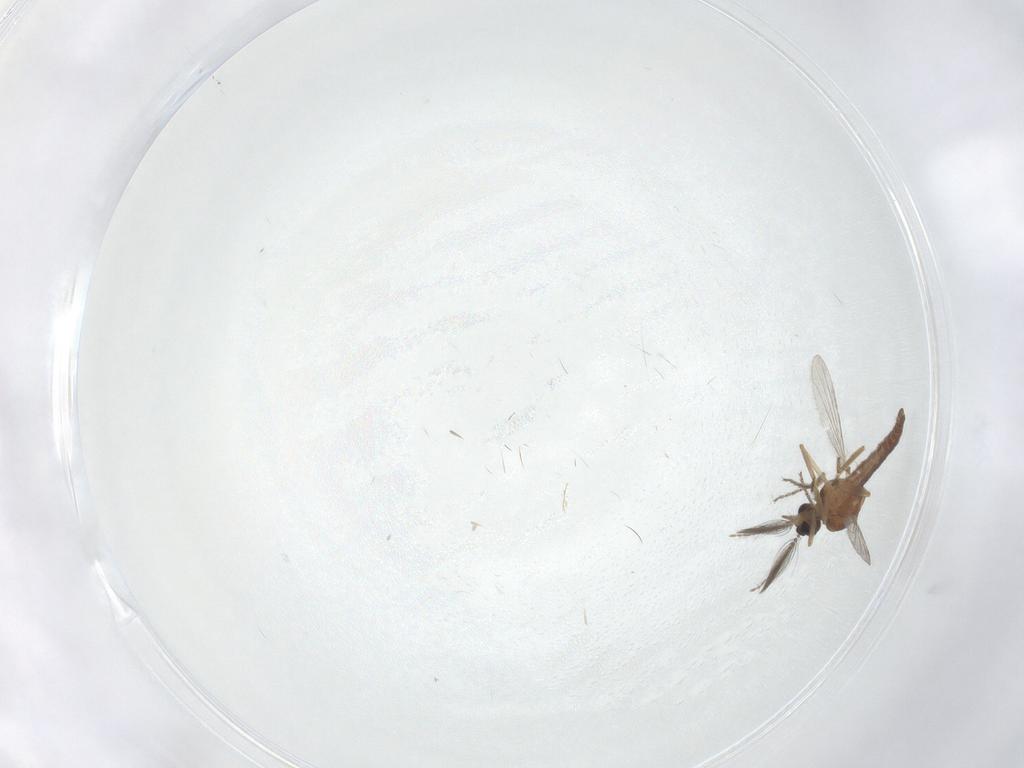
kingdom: Animalia
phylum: Arthropoda
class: Insecta
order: Diptera
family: Ceratopogonidae
